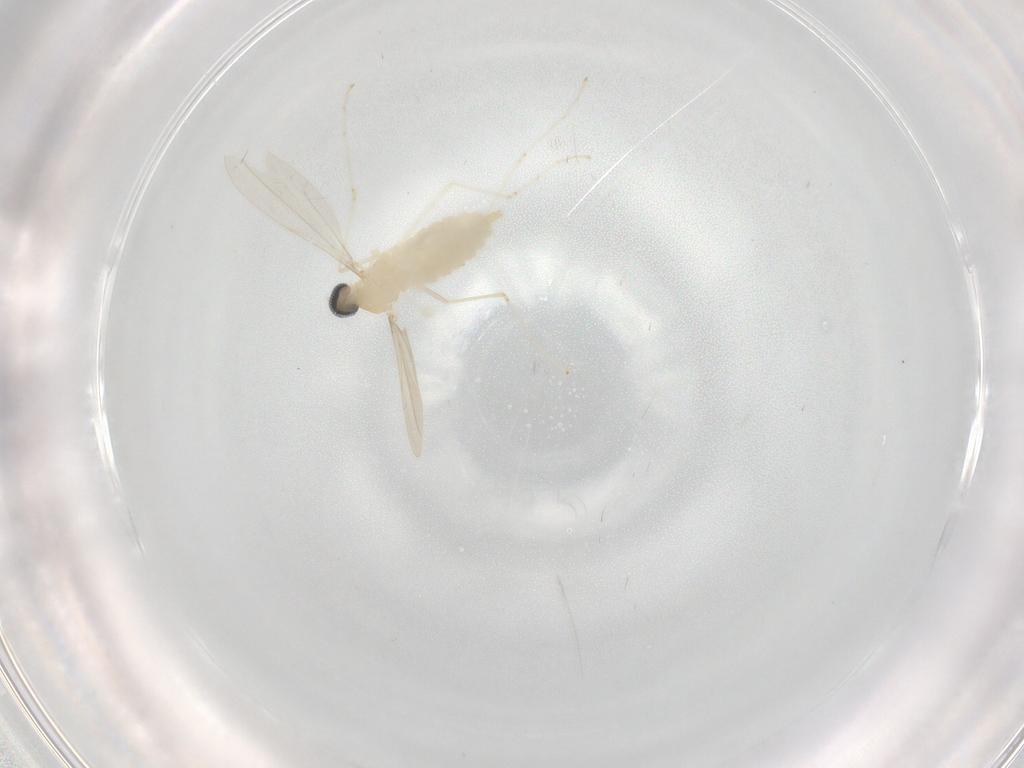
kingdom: Animalia
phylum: Arthropoda
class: Insecta
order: Diptera
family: Cecidomyiidae
